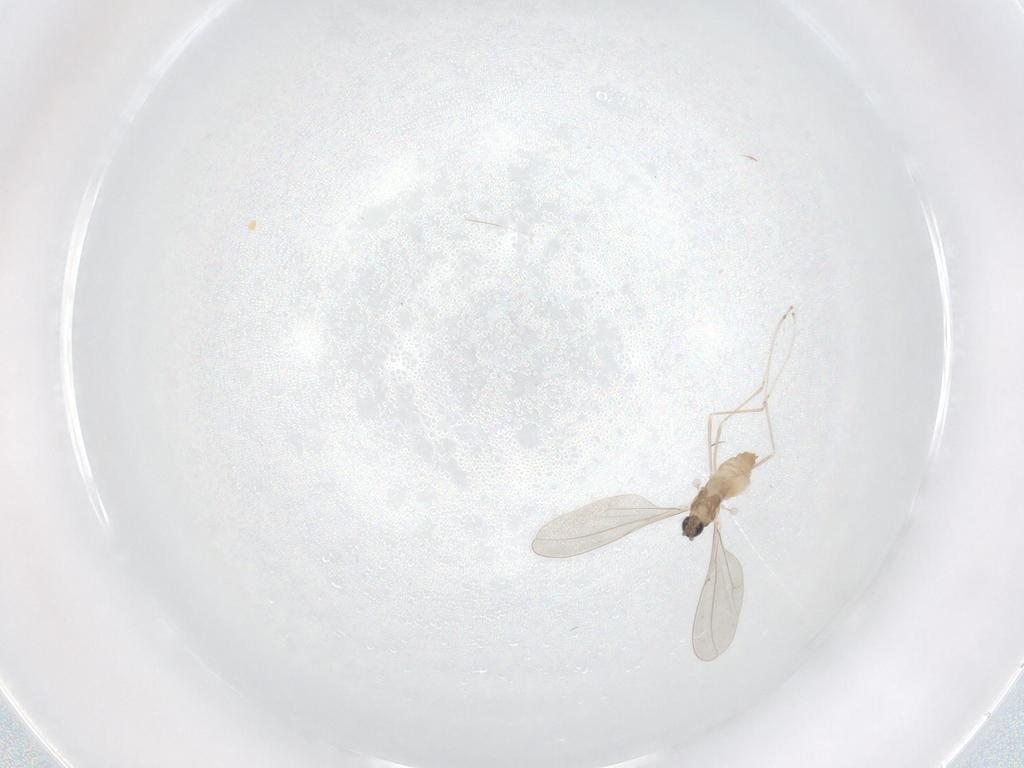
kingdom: Animalia
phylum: Arthropoda
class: Insecta
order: Diptera
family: Cecidomyiidae
